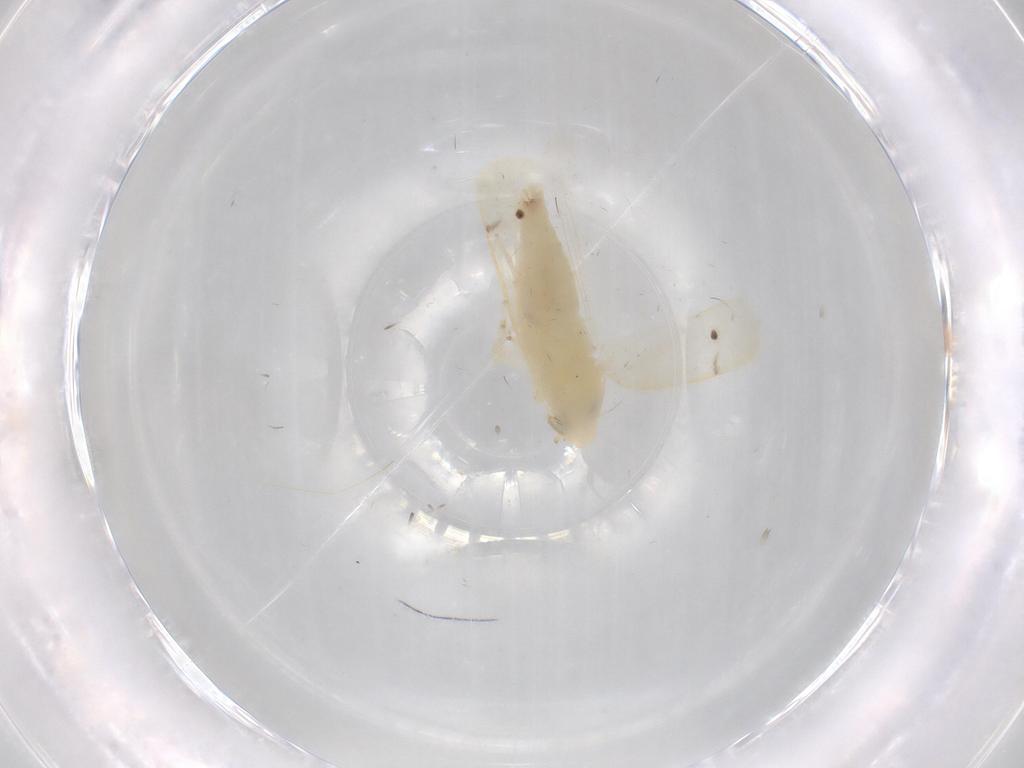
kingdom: Animalia
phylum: Arthropoda
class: Insecta
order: Hemiptera
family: Cicadellidae
